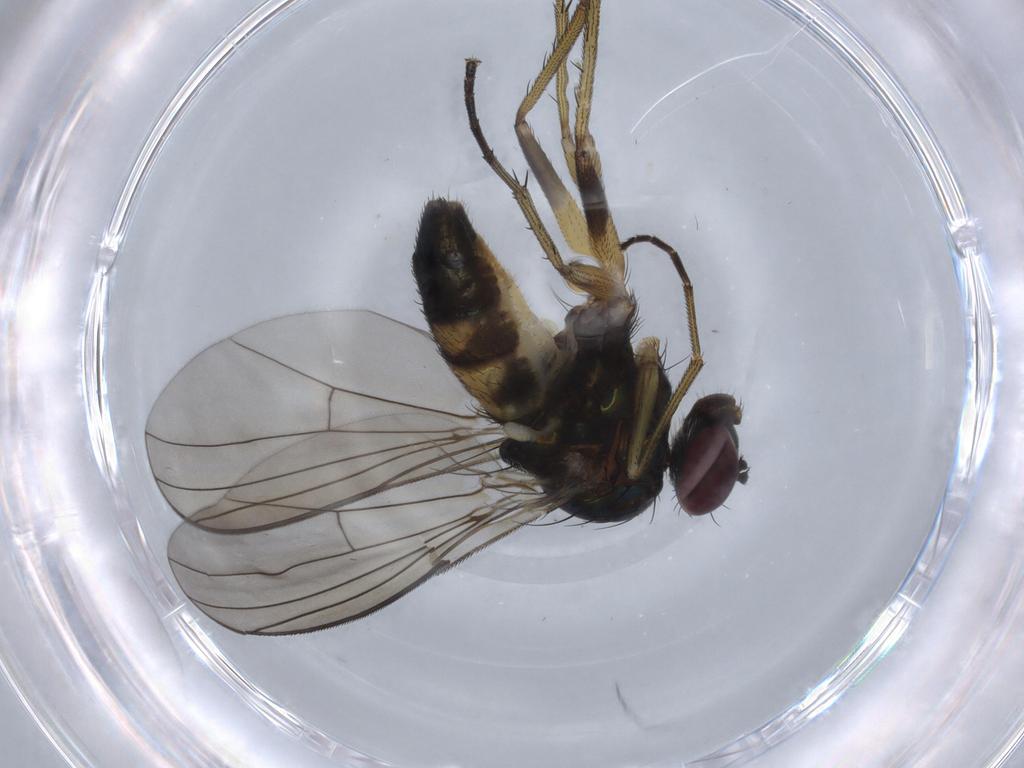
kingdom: Animalia
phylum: Arthropoda
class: Insecta
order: Diptera
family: Dolichopodidae
